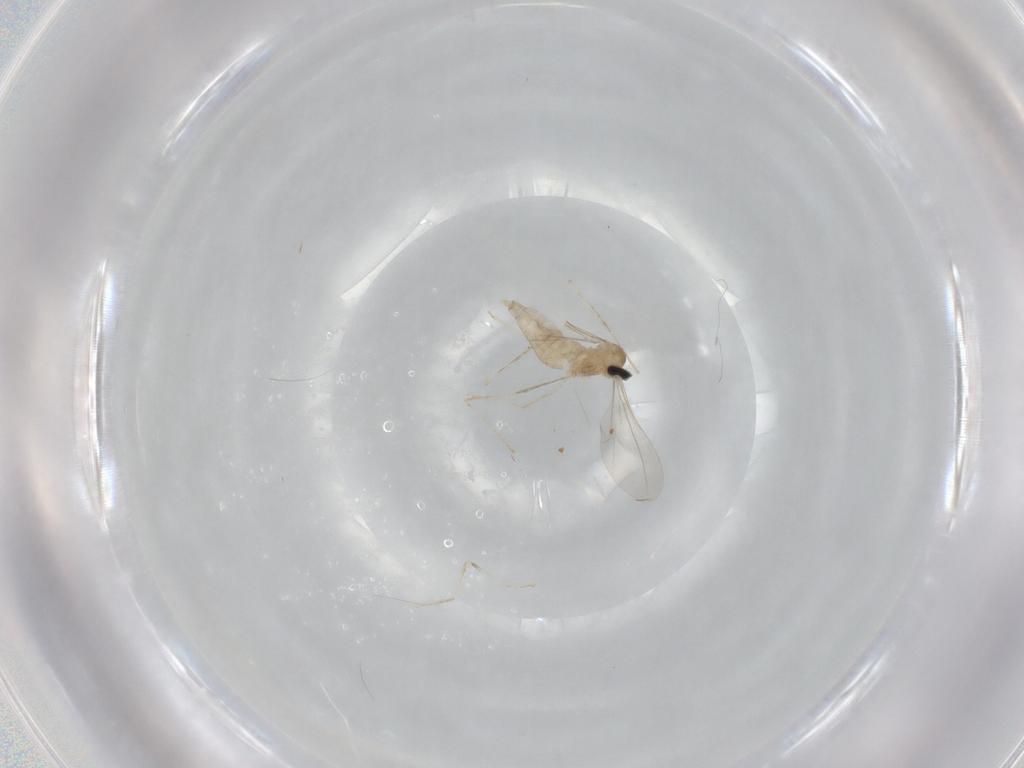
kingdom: Animalia
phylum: Arthropoda
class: Insecta
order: Diptera
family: Cecidomyiidae
